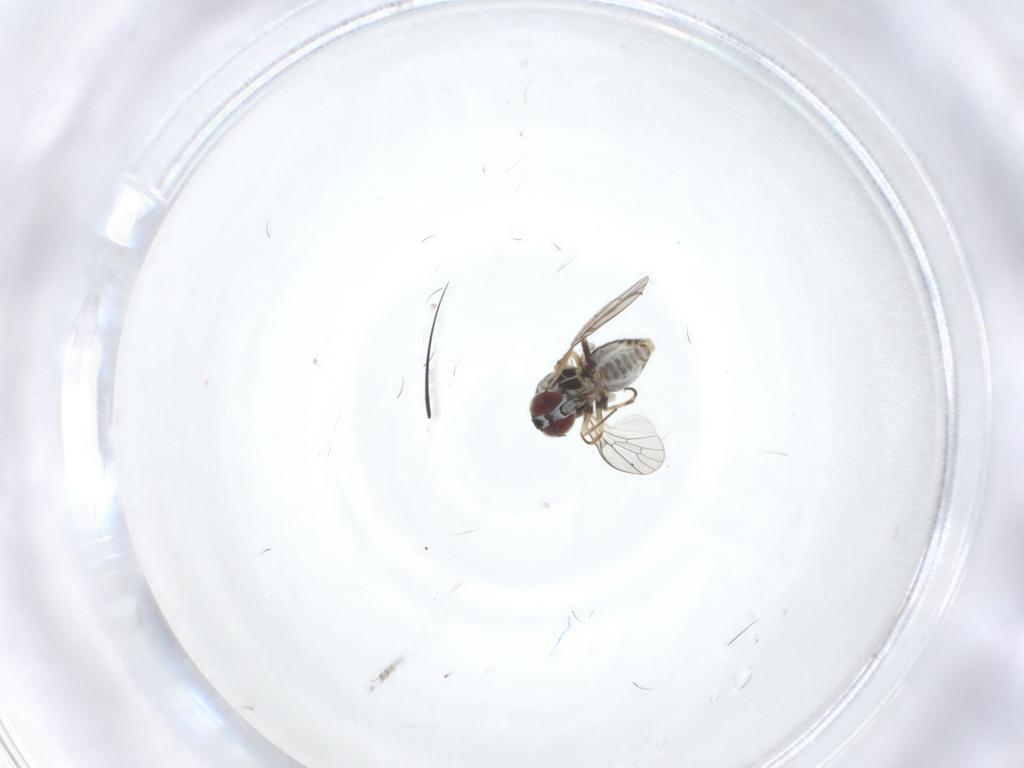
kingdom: Animalia
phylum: Arthropoda
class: Insecta
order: Diptera
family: Mythicomyiidae
